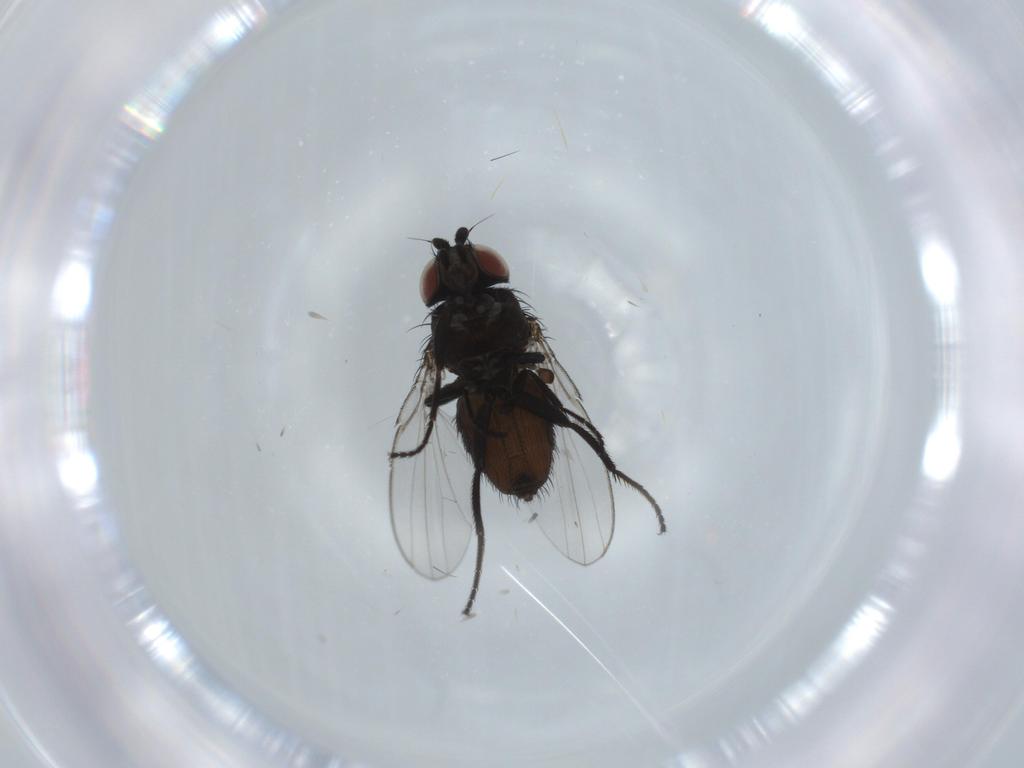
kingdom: Animalia
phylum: Arthropoda
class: Insecta
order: Diptera
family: Milichiidae
